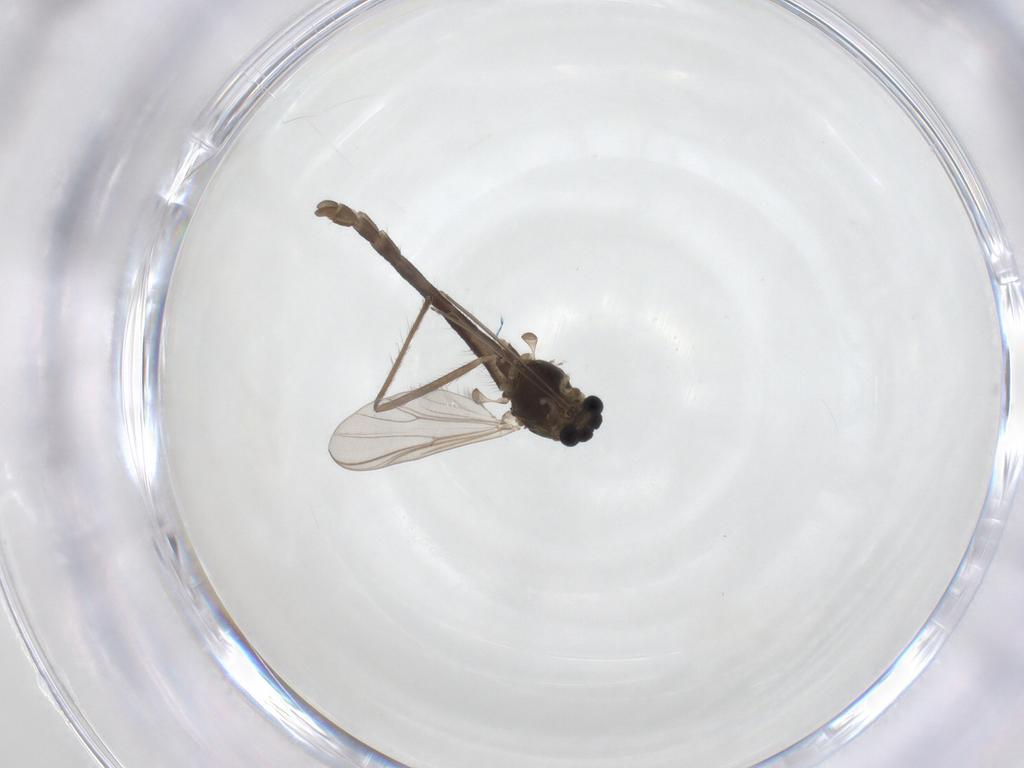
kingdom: Animalia
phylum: Arthropoda
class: Insecta
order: Diptera
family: Chironomidae
